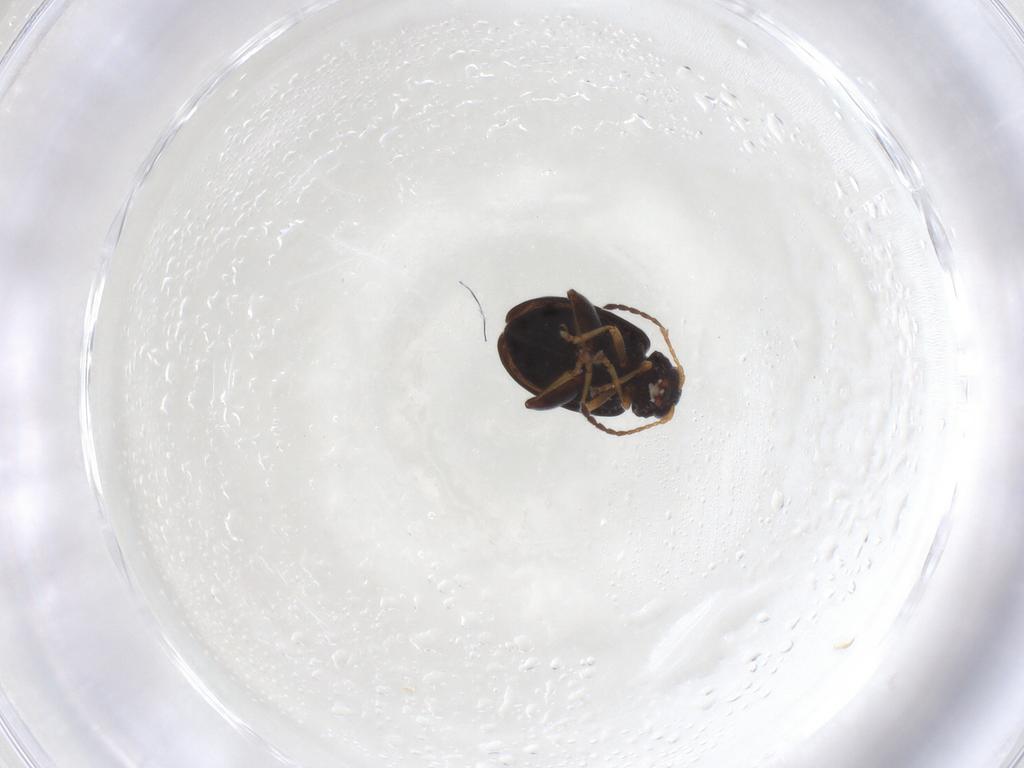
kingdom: Animalia
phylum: Arthropoda
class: Insecta
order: Coleoptera
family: Chrysomelidae
